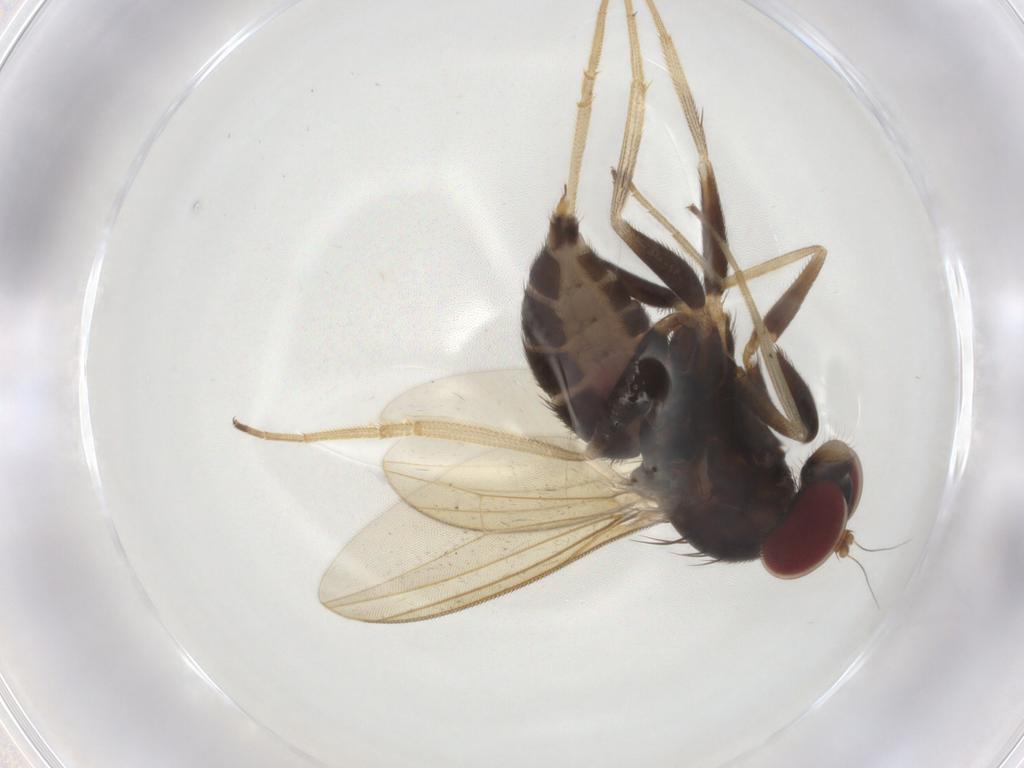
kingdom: Animalia
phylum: Arthropoda
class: Insecta
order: Diptera
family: Dolichopodidae
